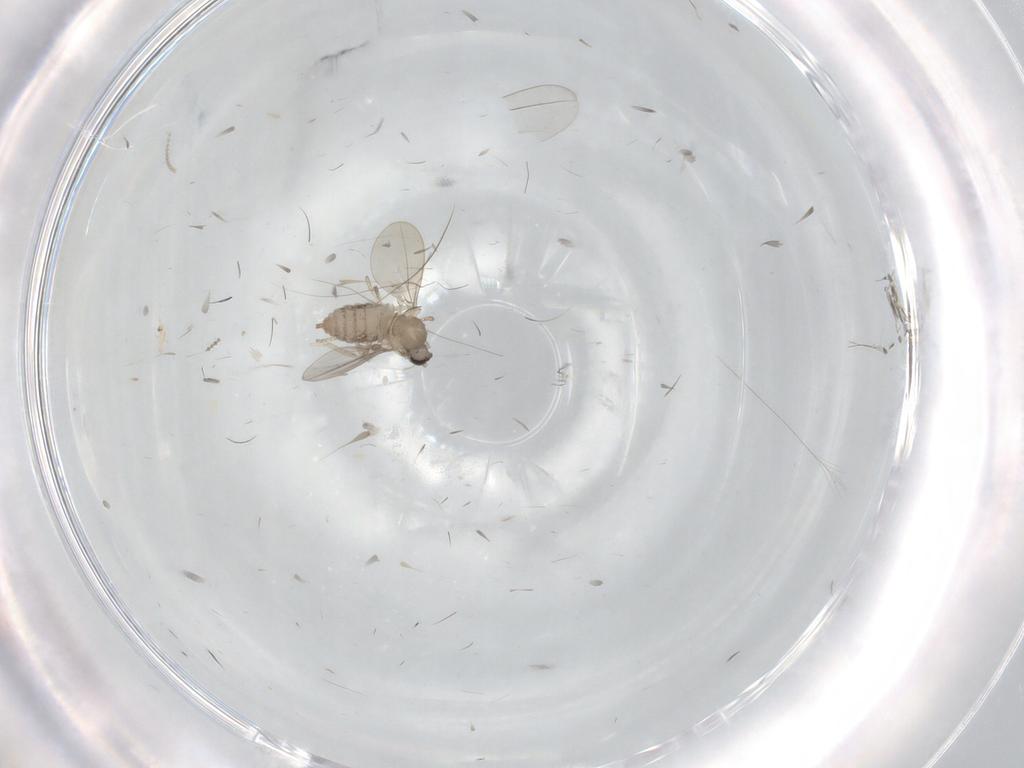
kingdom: Animalia
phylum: Arthropoda
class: Insecta
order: Diptera
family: Cecidomyiidae
